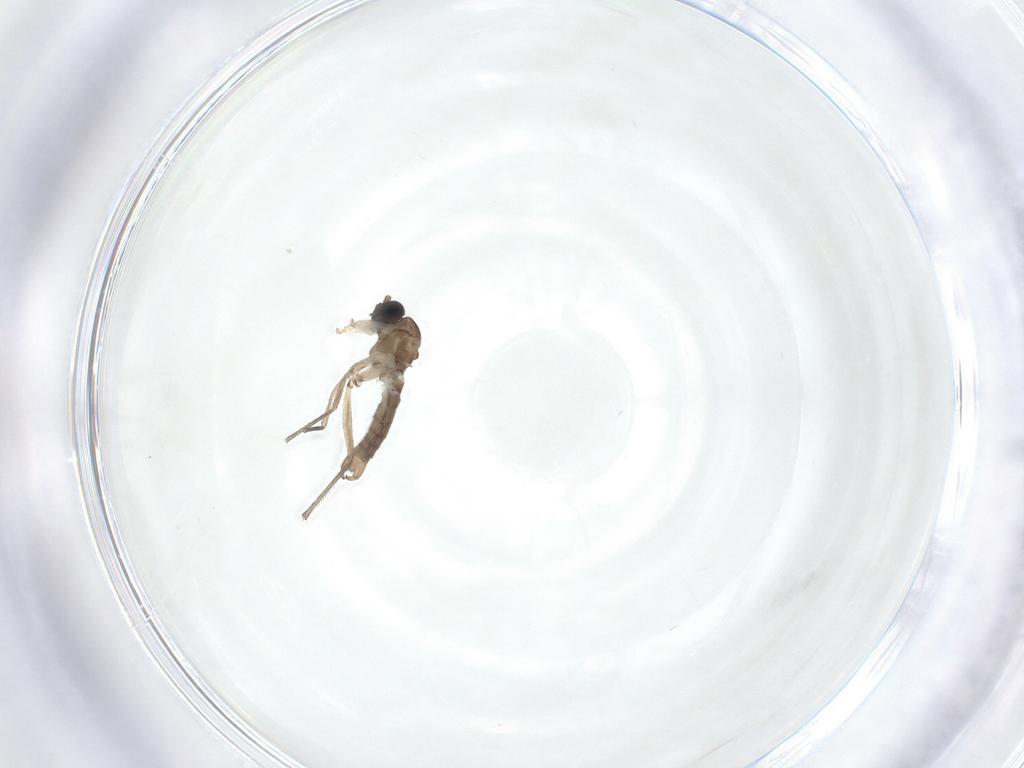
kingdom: Animalia
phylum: Arthropoda
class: Insecta
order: Diptera
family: Sciaridae
